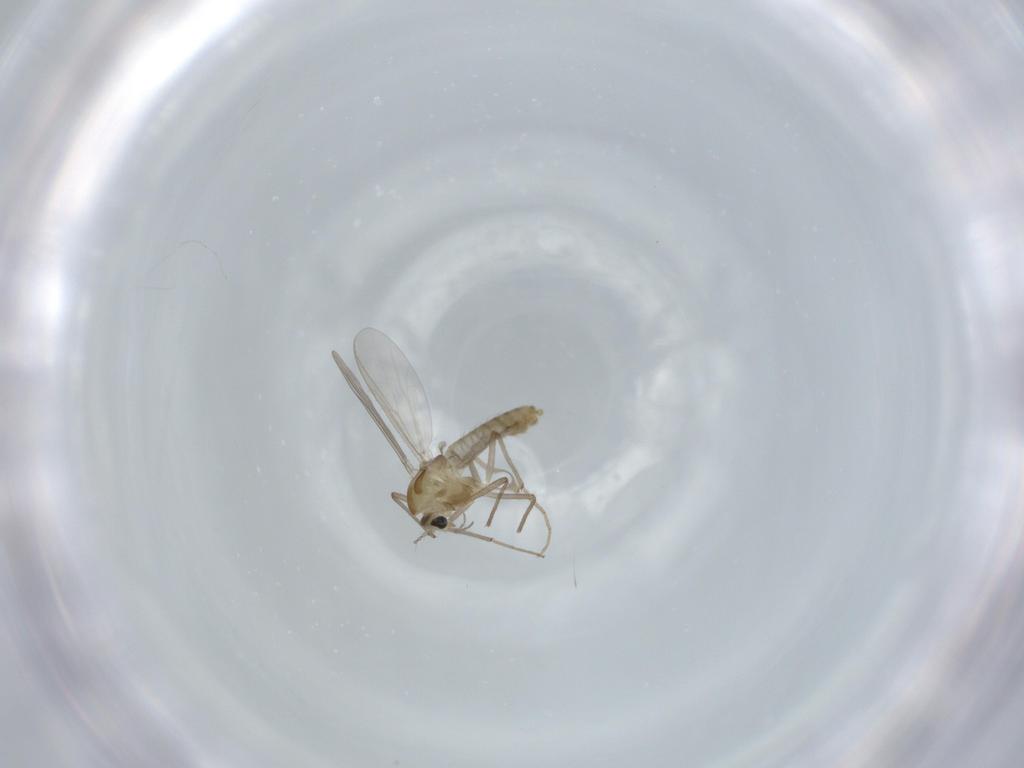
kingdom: Animalia
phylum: Arthropoda
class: Insecta
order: Diptera
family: Chironomidae
